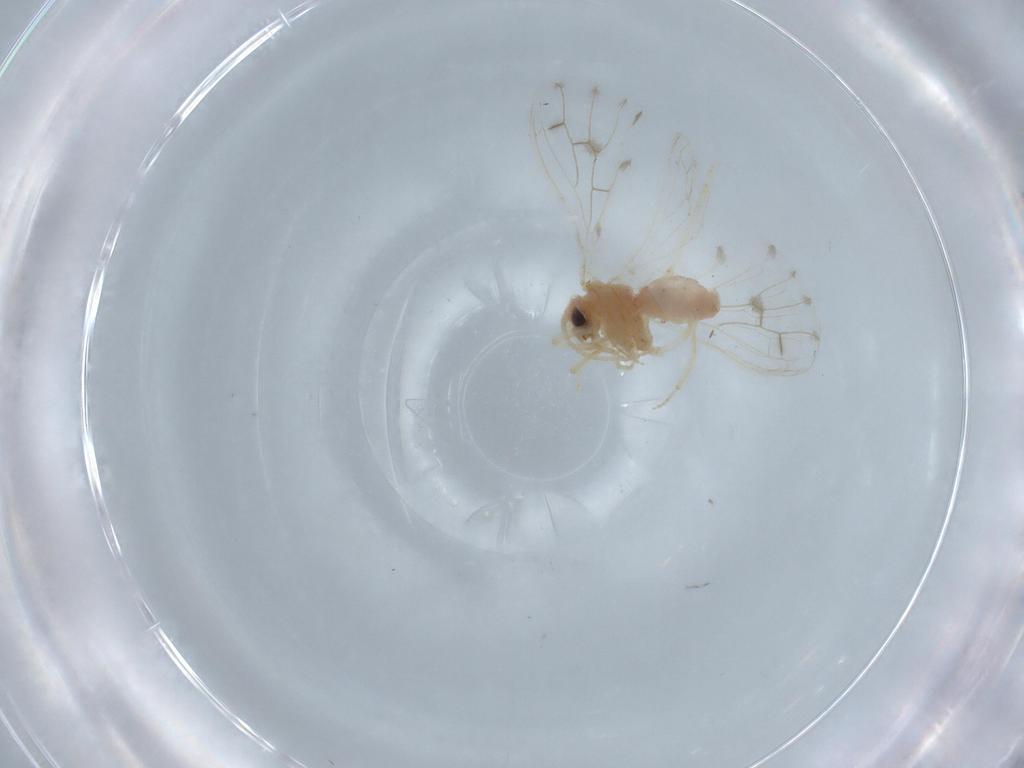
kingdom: Animalia
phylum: Arthropoda
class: Insecta
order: Neuroptera
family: Coniopterygidae
